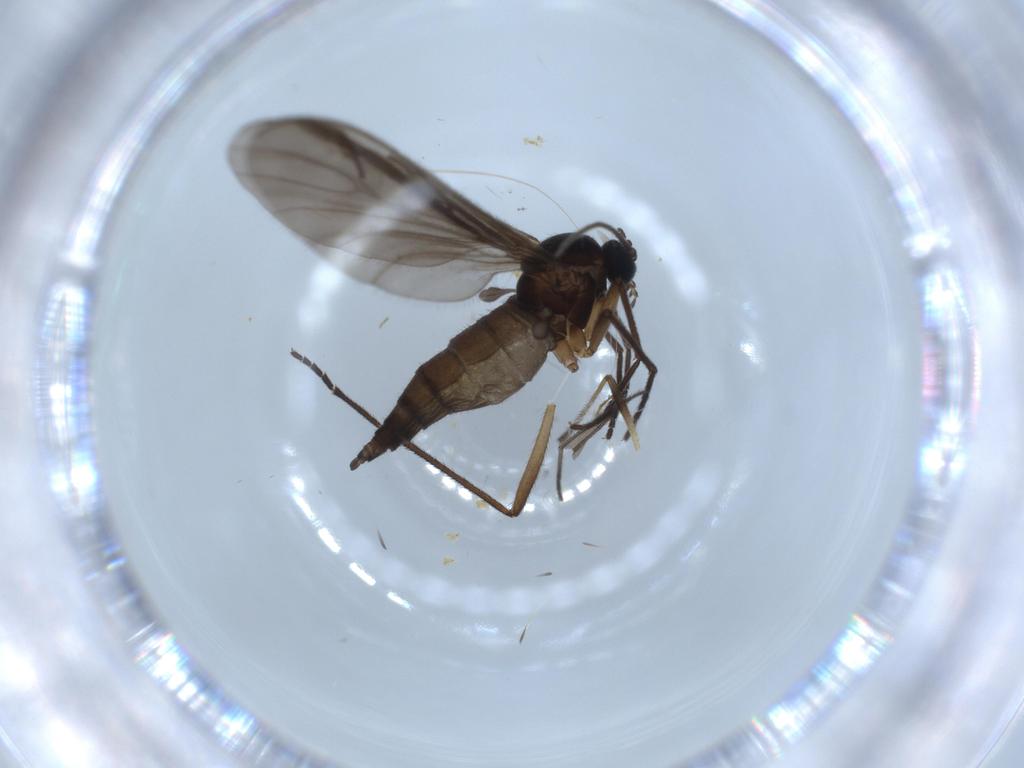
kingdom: Animalia
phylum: Arthropoda
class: Insecta
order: Diptera
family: Sciaridae
